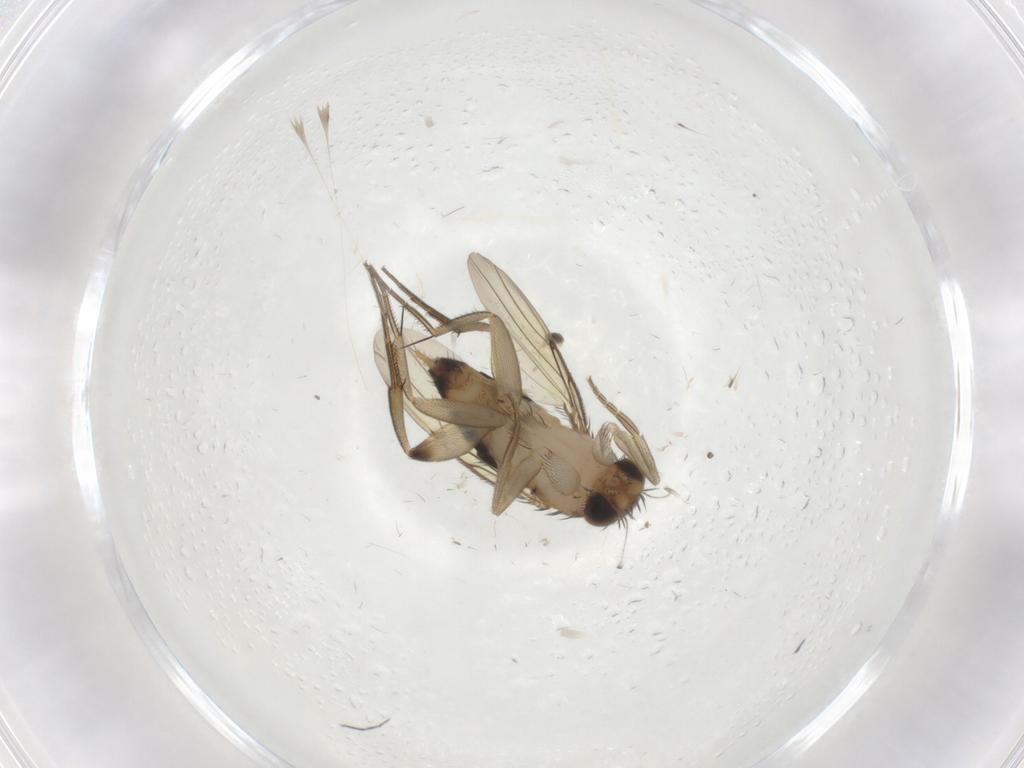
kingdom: Animalia
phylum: Arthropoda
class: Insecta
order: Diptera
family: Phoridae
